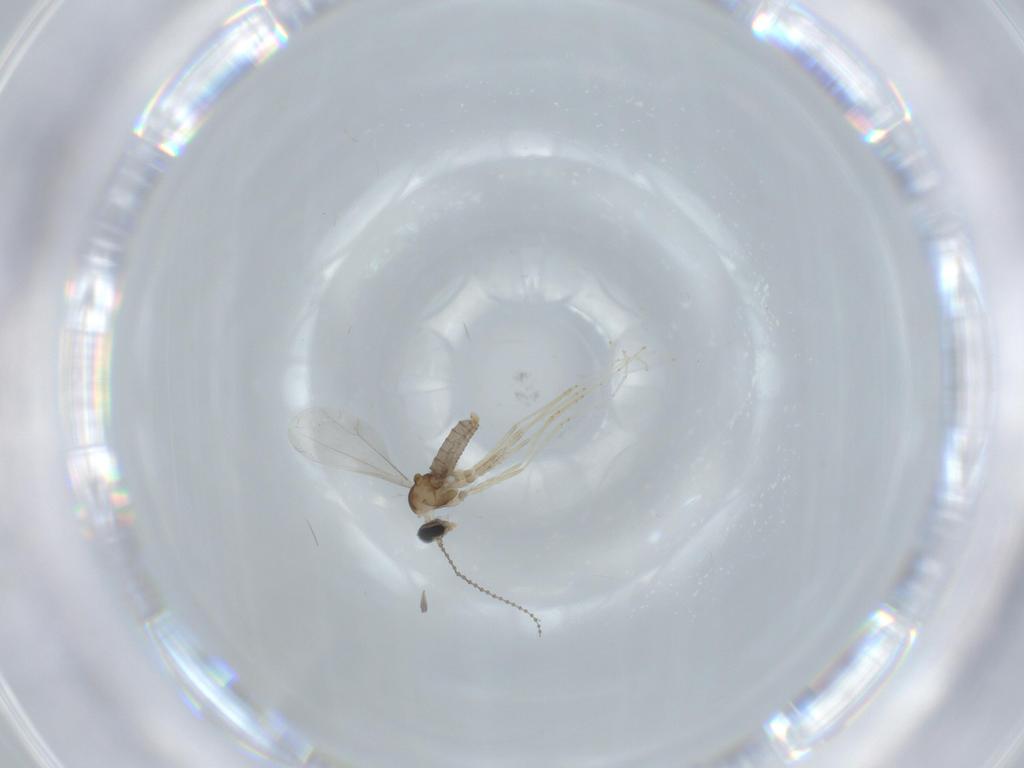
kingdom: Animalia
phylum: Arthropoda
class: Insecta
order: Diptera
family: Cecidomyiidae
